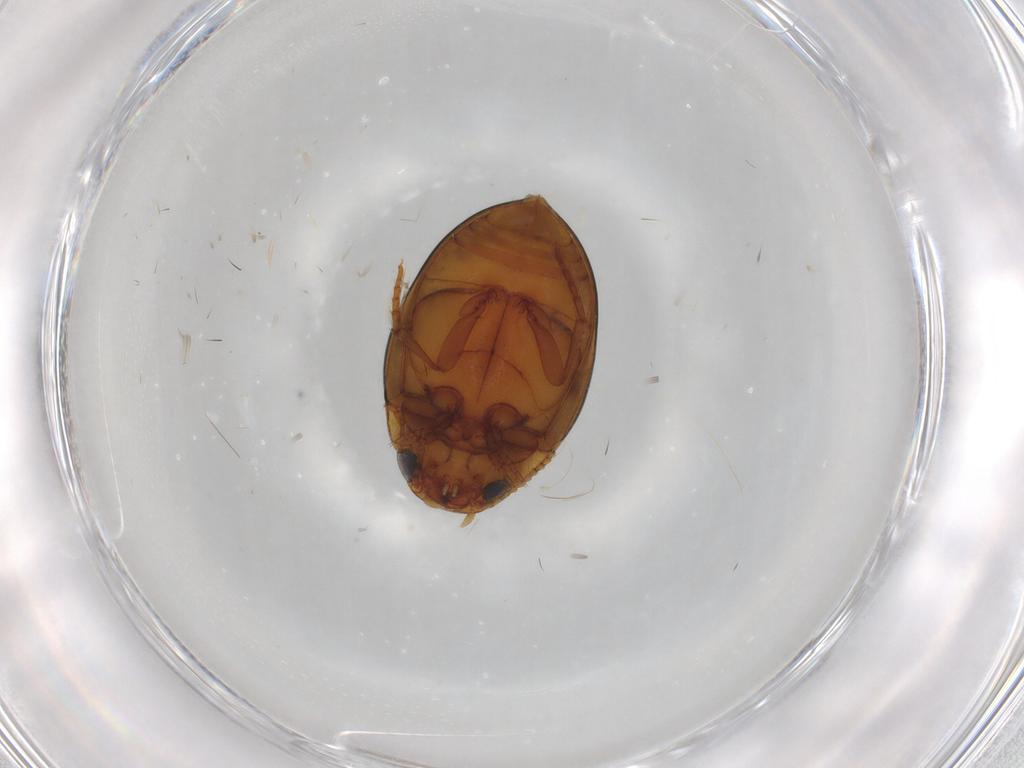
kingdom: Animalia
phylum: Arthropoda
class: Insecta
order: Coleoptera
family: Dytiscidae
